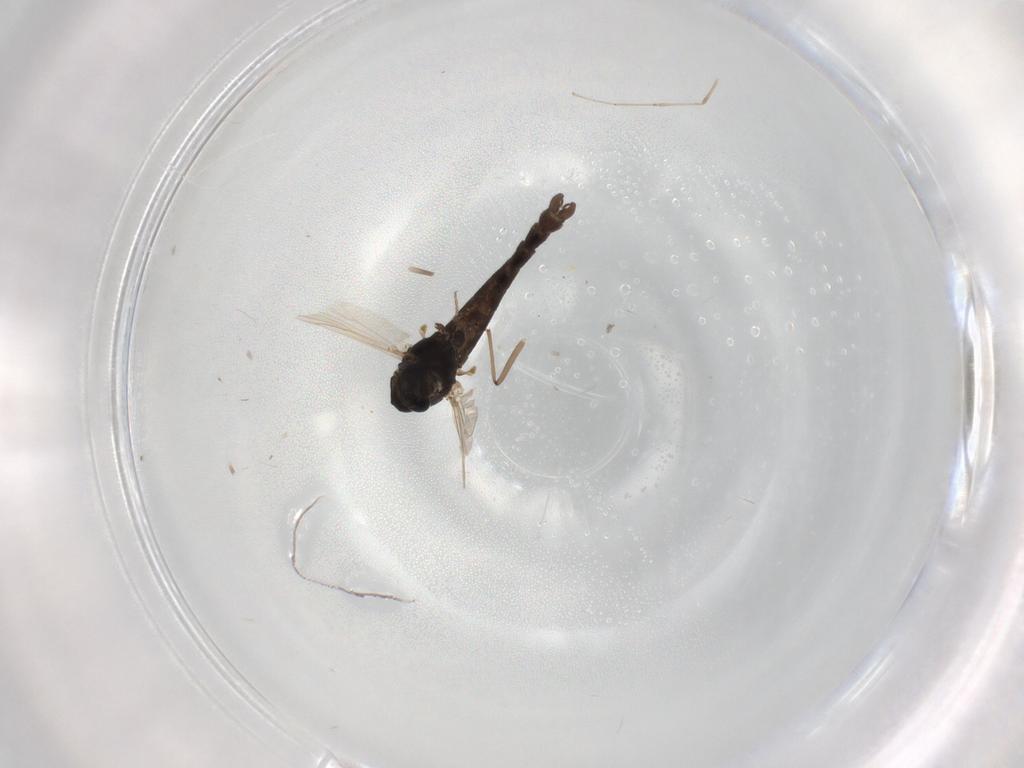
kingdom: Animalia
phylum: Arthropoda
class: Insecta
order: Diptera
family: Chironomidae
